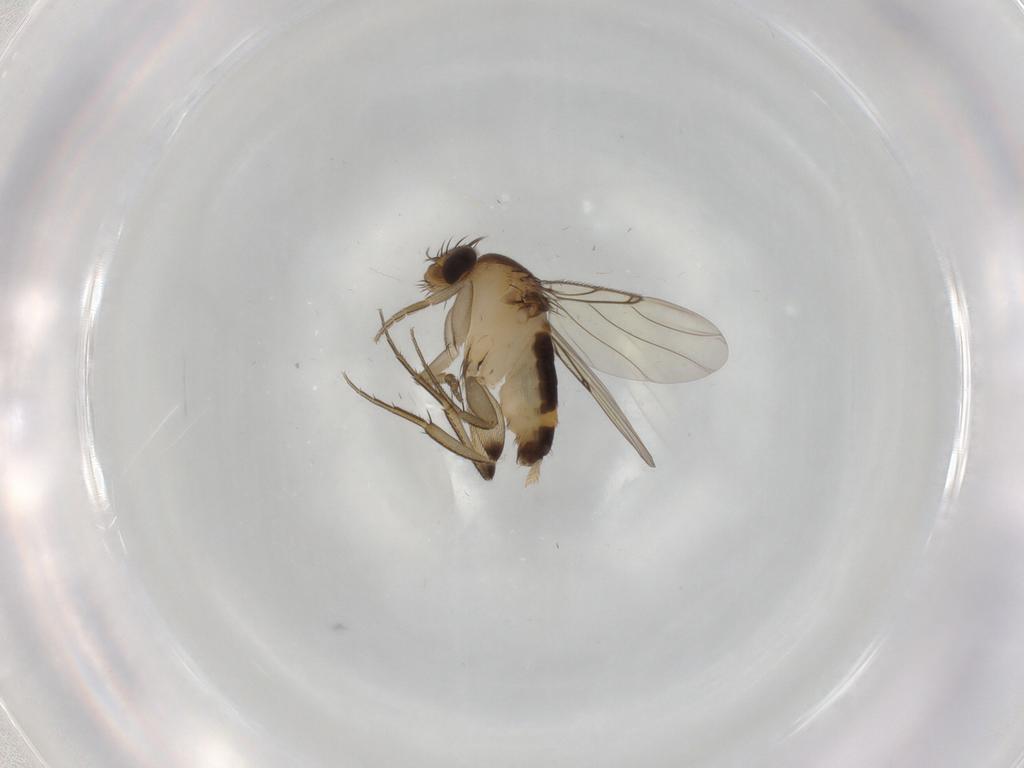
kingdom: Animalia
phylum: Arthropoda
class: Insecta
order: Diptera
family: Phoridae
